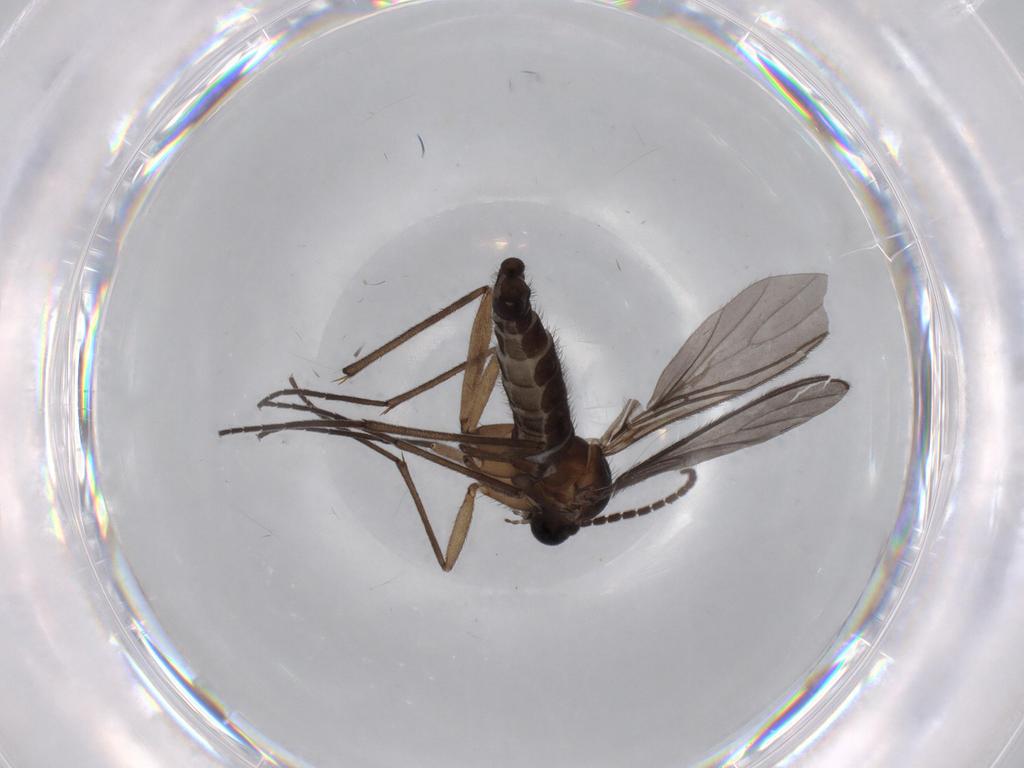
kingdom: Animalia
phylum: Arthropoda
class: Insecta
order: Diptera
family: Sciaridae
